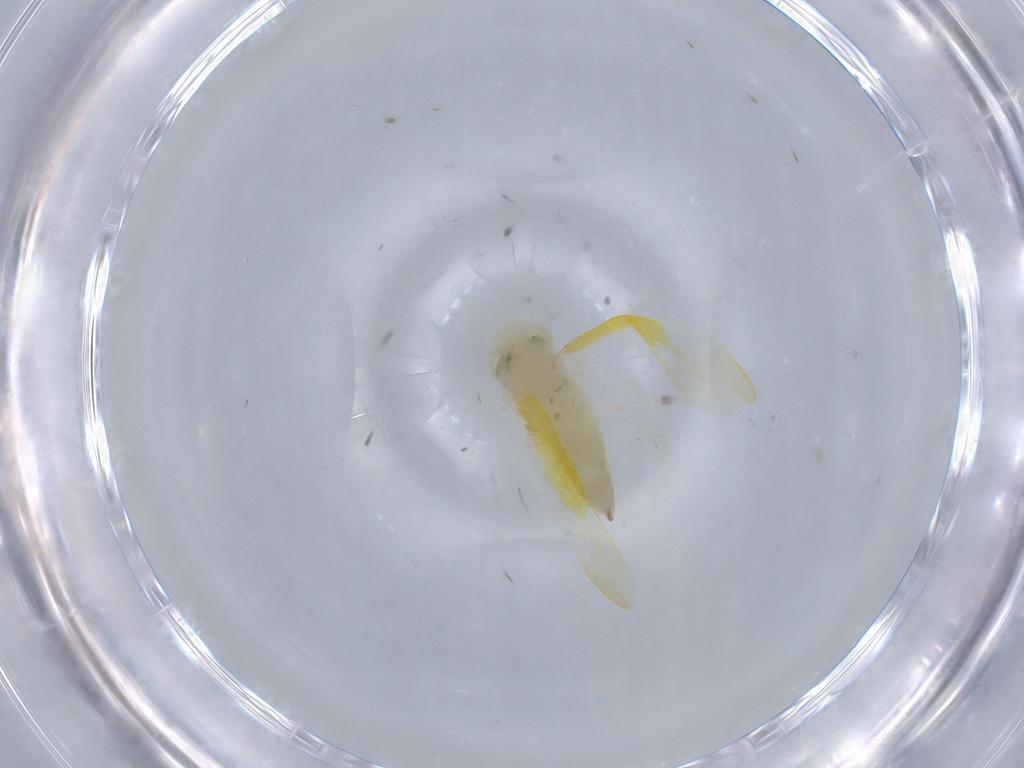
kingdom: Animalia
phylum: Arthropoda
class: Insecta
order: Hemiptera
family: Cicadellidae
